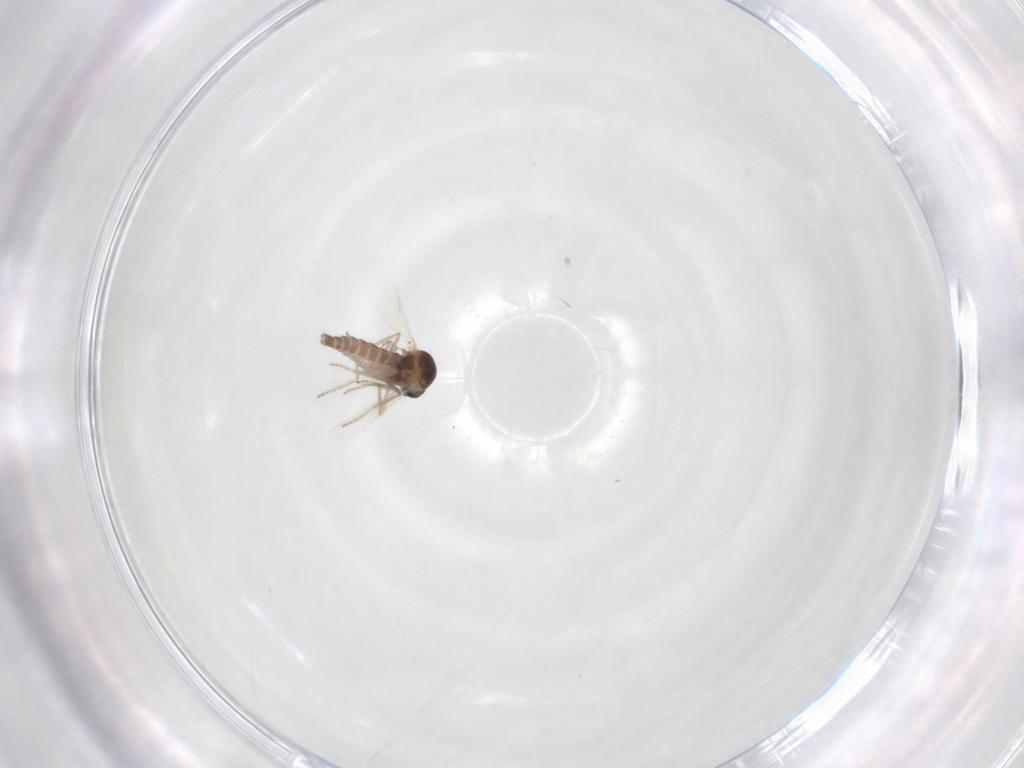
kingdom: Animalia
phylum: Arthropoda
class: Insecta
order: Diptera
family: Ceratopogonidae
